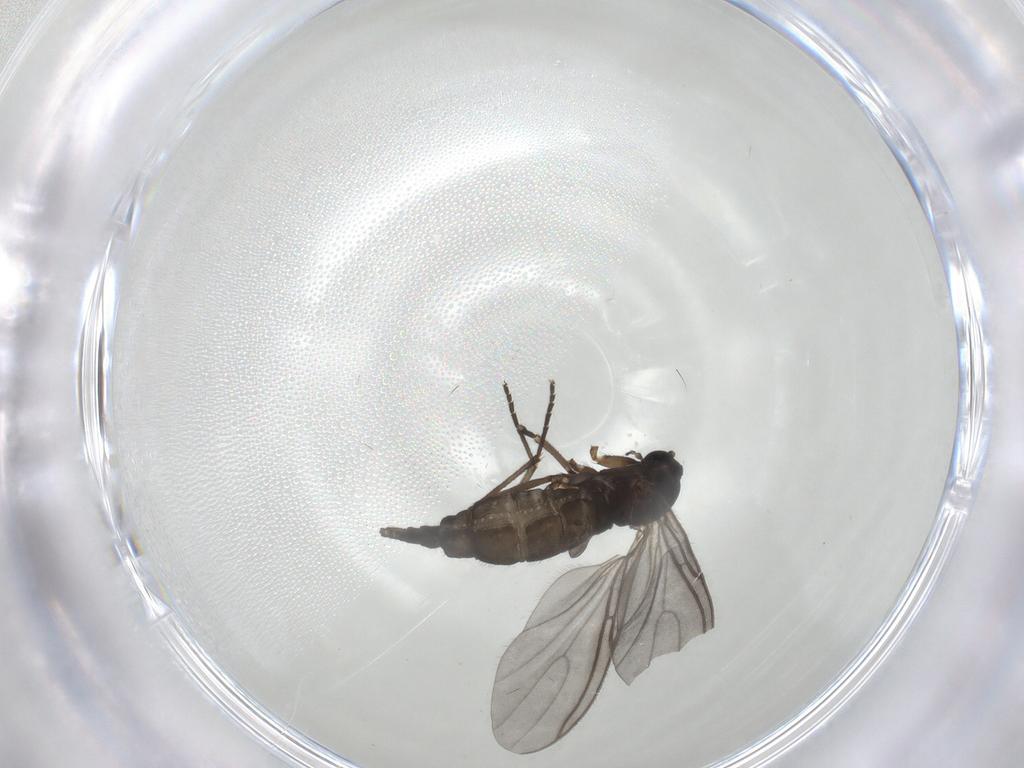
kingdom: Animalia
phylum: Arthropoda
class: Insecta
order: Diptera
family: Sciaridae
